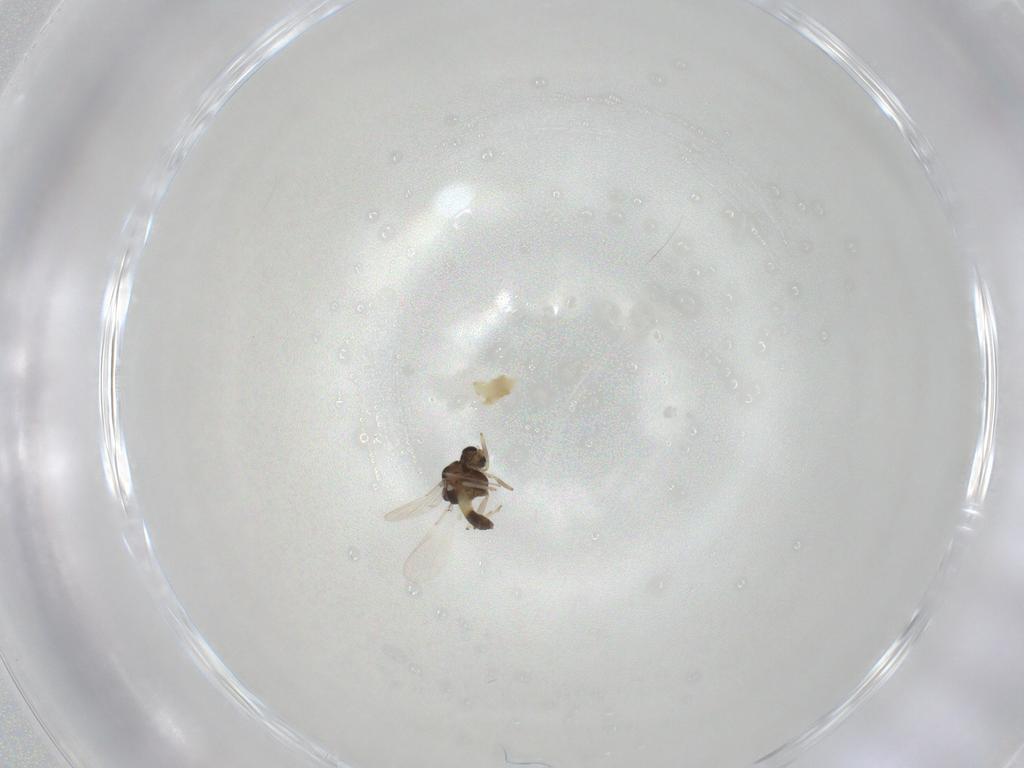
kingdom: Animalia
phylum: Arthropoda
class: Insecta
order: Diptera
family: Chironomidae
